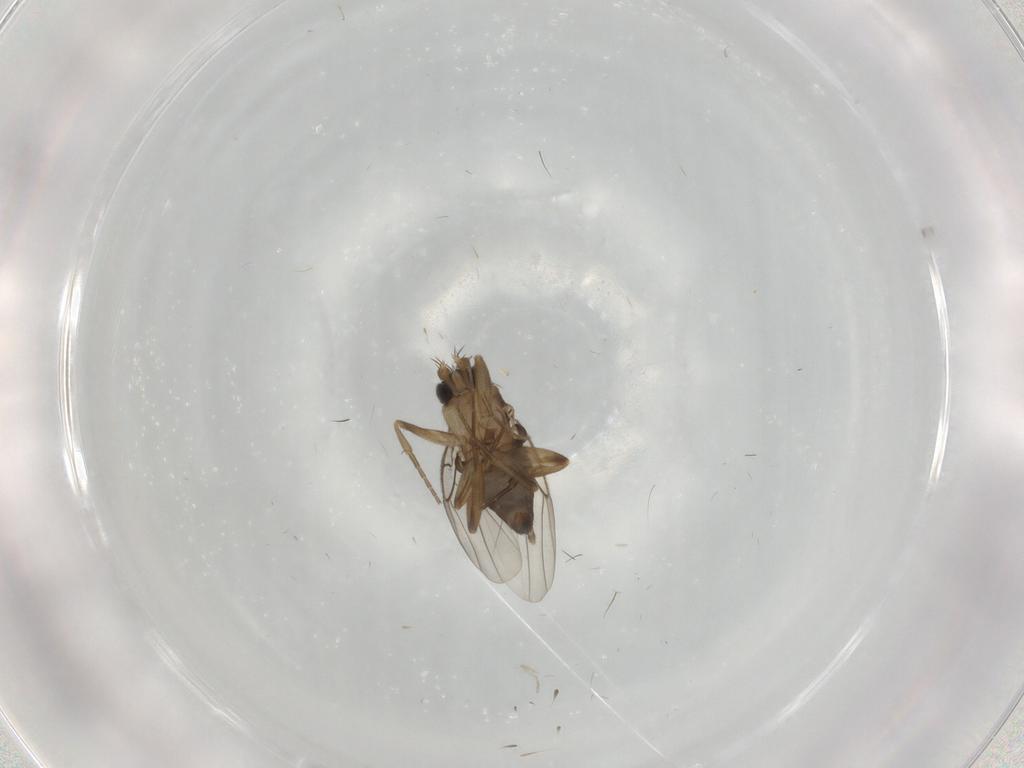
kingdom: Animalia
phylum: Arthropoda
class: Insecta
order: Diptera
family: Phoridae
